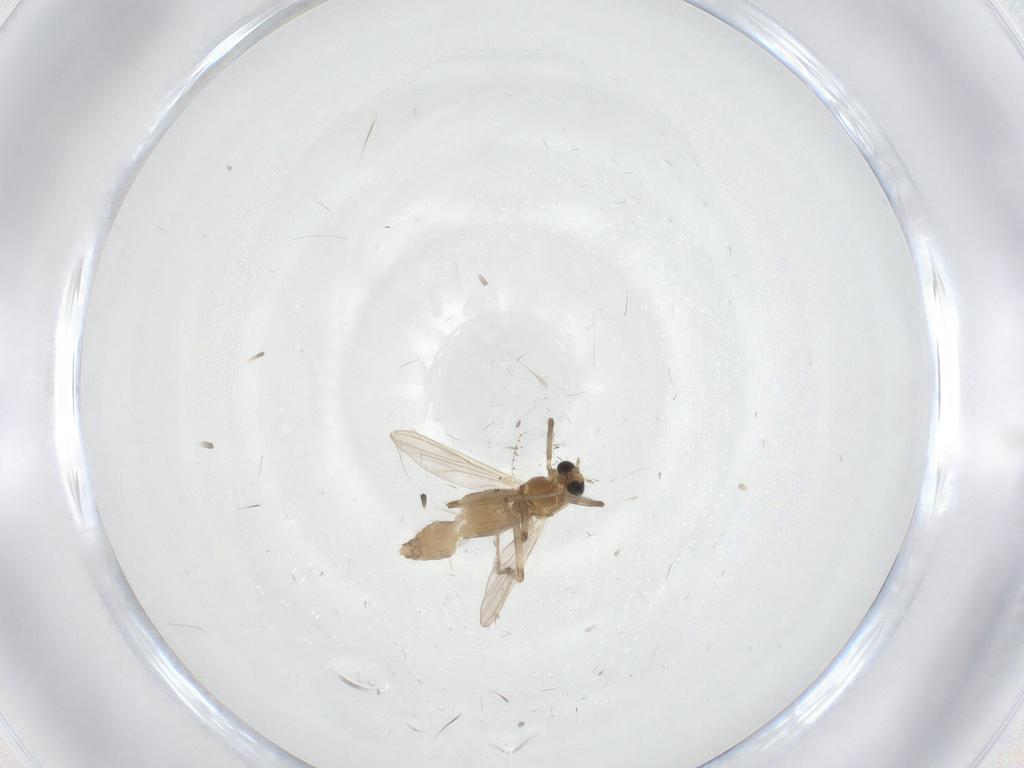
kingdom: Animalia
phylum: Arthropoda
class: Insecta
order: Diptera
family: Chironomidae
